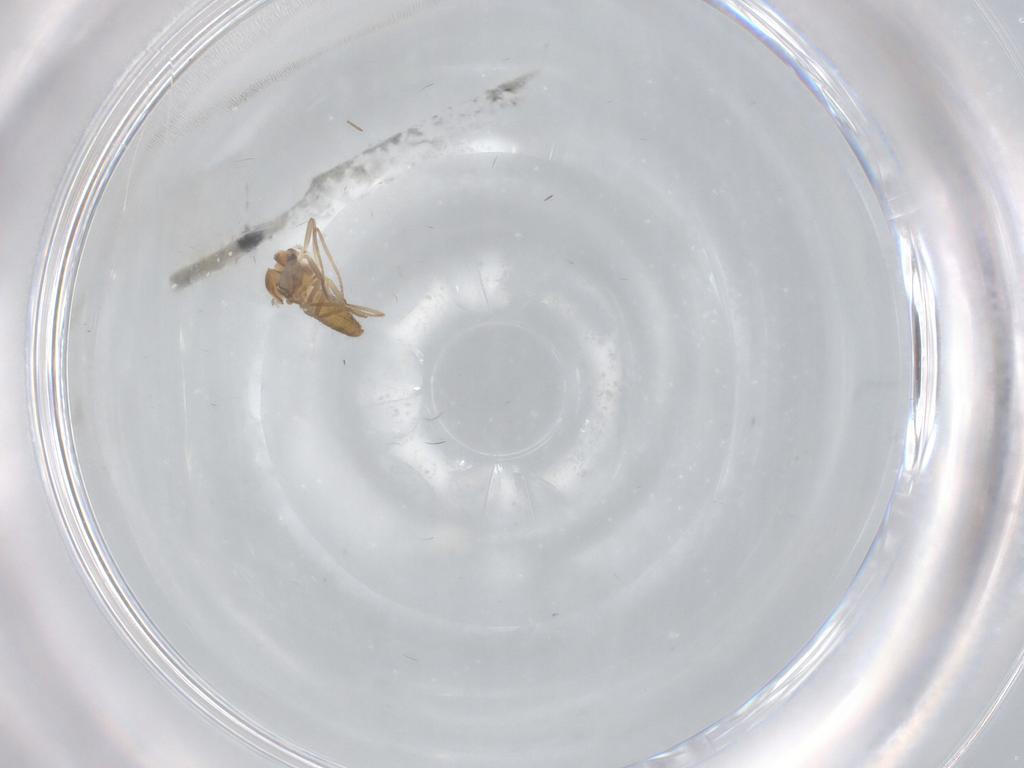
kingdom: Animalia
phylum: Arthropoda
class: Insecta
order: Diptera
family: Chironomidae
